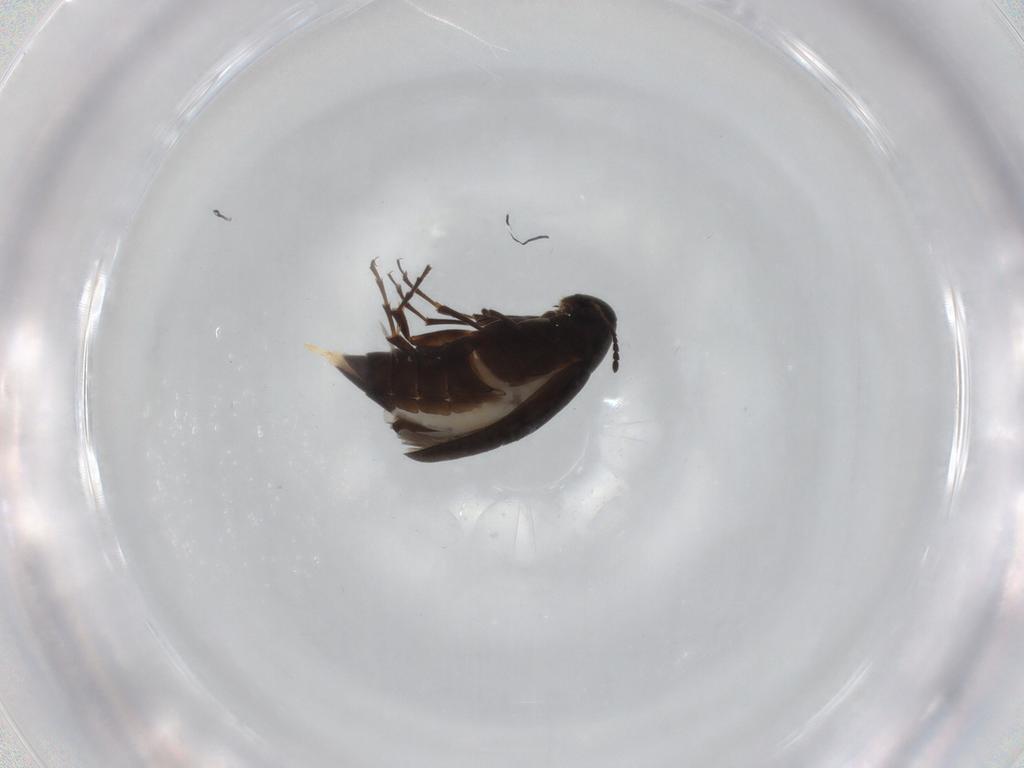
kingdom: Animalia
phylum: Arthropoda
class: Insecta
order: Coleoptera
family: Scraptiidae
